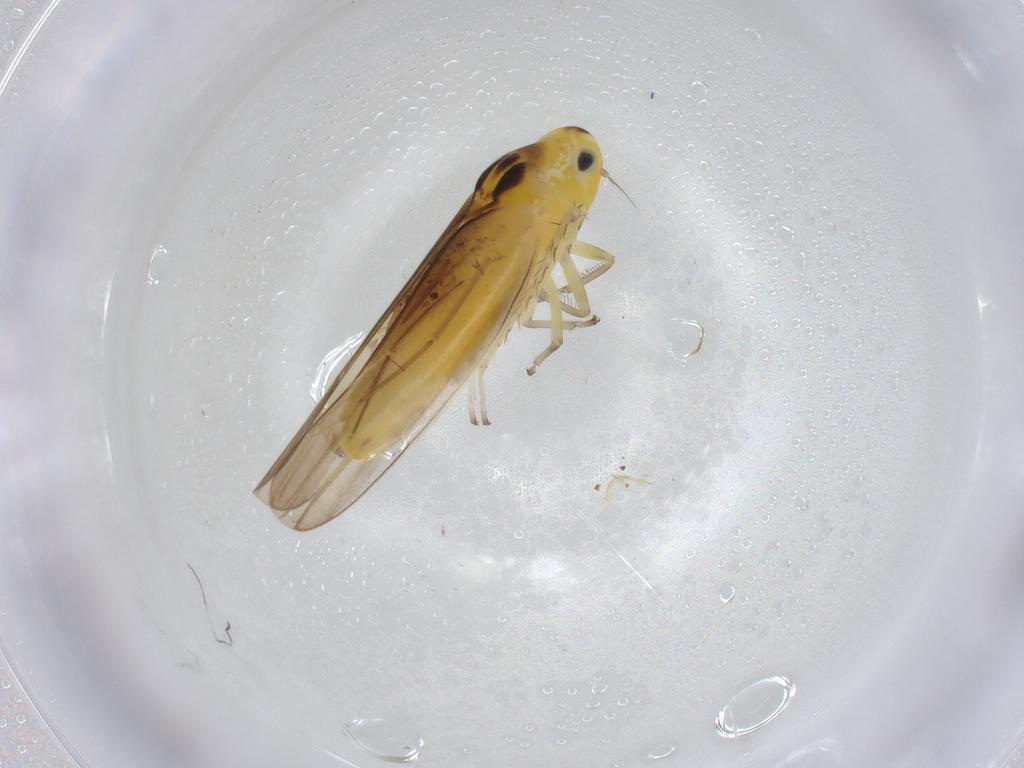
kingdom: Animalia
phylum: Arthropoda
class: Insecta
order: Hemiptera
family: Cicadellidae
